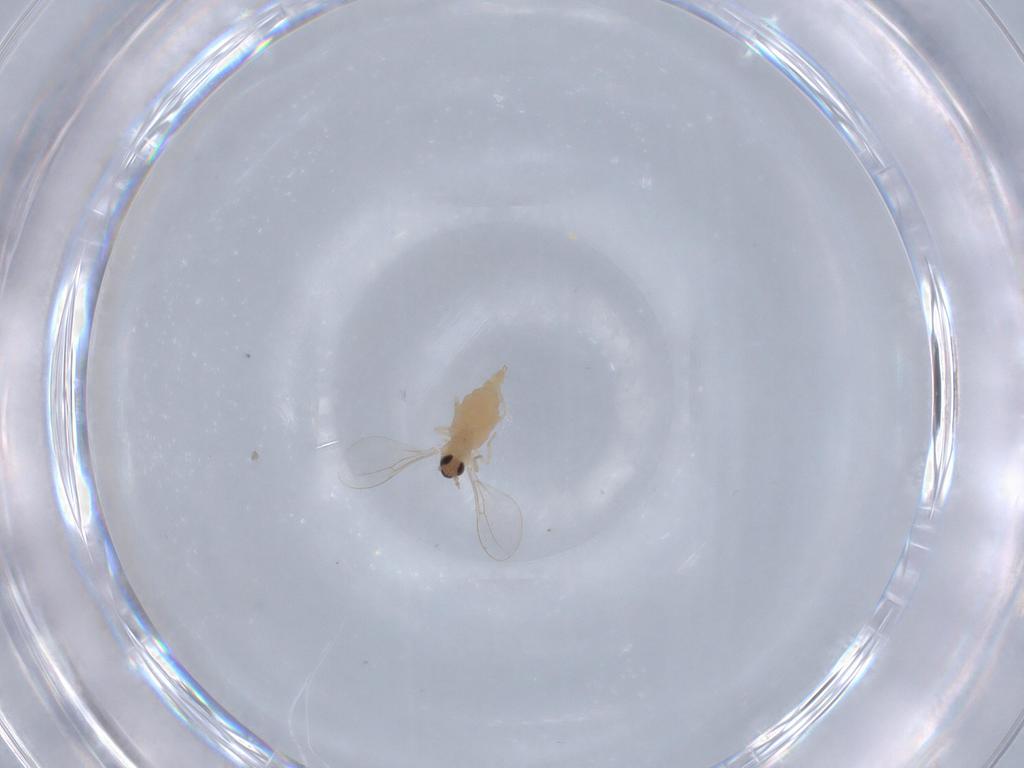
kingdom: Animalia
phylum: Arthropoda
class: Insecta
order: Diptera
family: Cecidomyiidae
